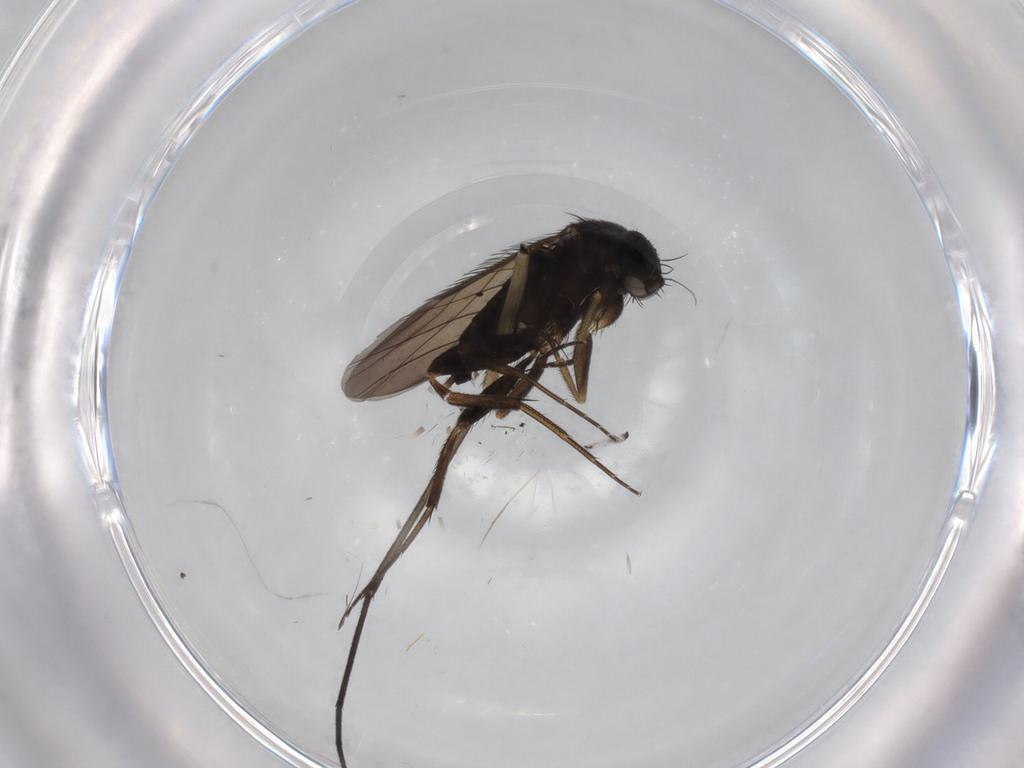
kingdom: Animalia
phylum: Arthropoda
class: Insecta
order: Diptera
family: Phoridae
